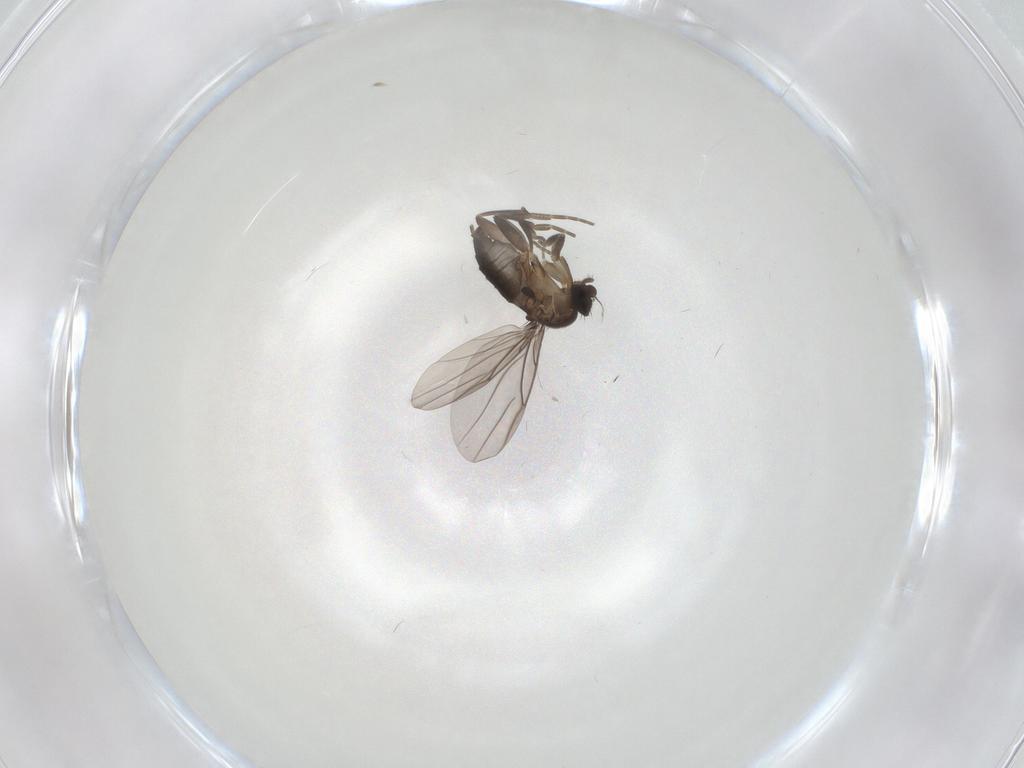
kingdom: Animalia
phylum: Arthropoda
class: Insecta
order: Diptera
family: Phoridae
